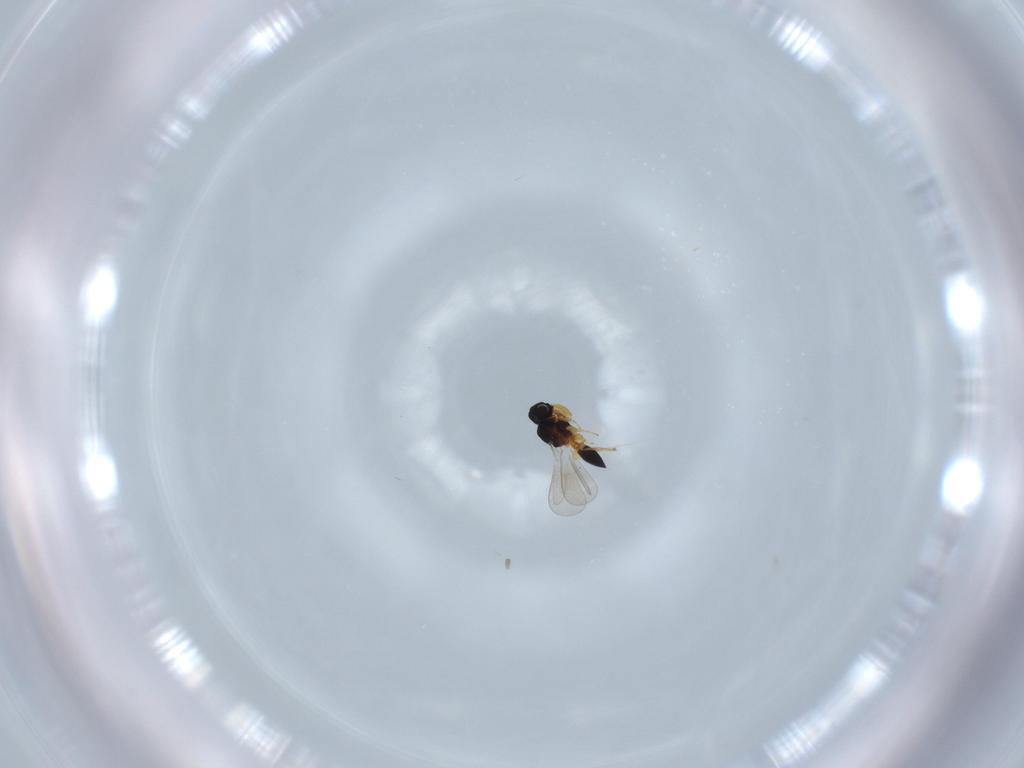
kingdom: Animalia
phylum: Arthropoda
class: Insecta
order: Hymenoptera
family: Platygastridae
